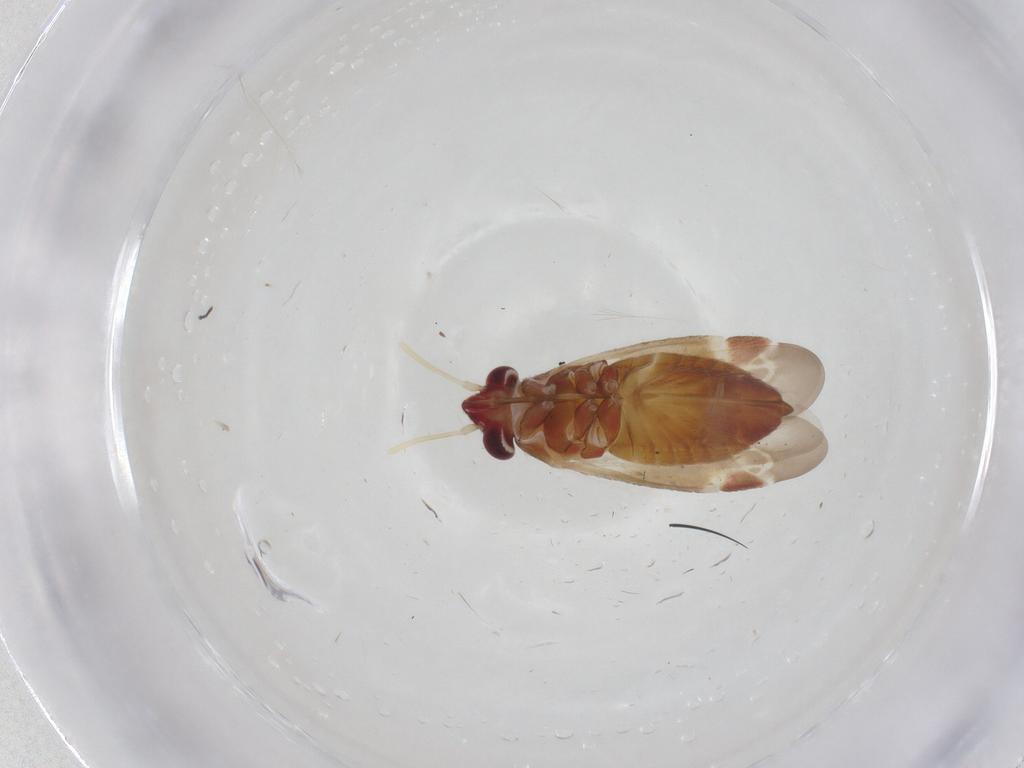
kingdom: Animalia
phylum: Arthropoda
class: Insecta
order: Hemiptera
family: Miridae
